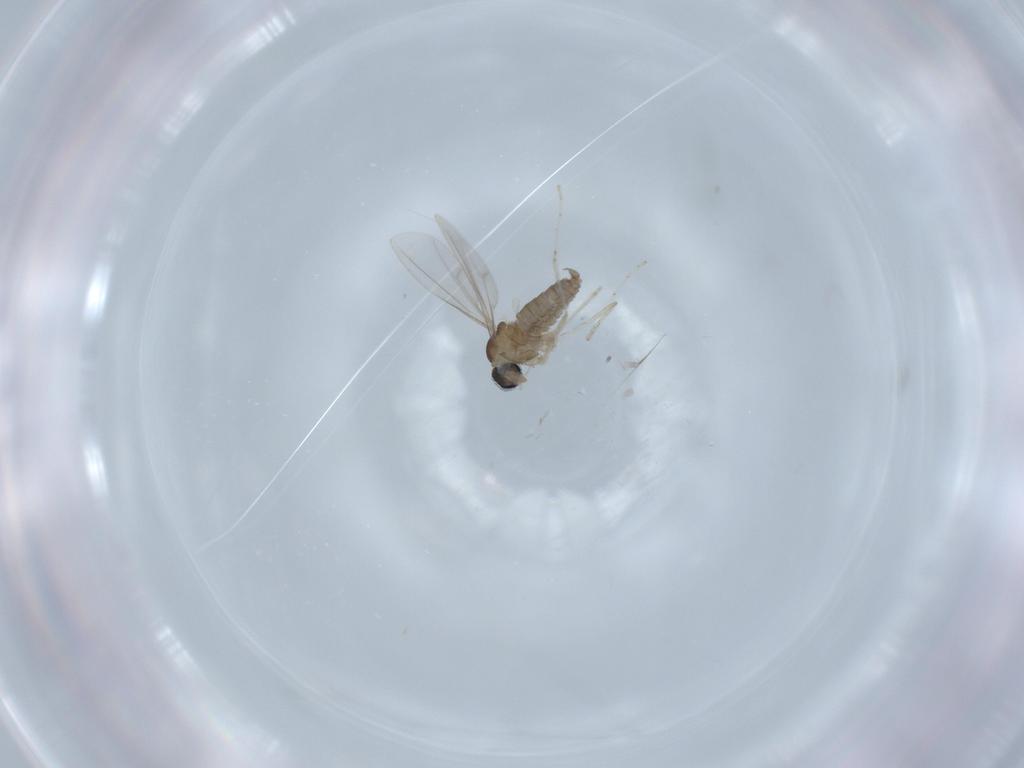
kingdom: Animalia
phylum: Arthropoda
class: Insecta
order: Diptera
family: Cecidomyiidae
